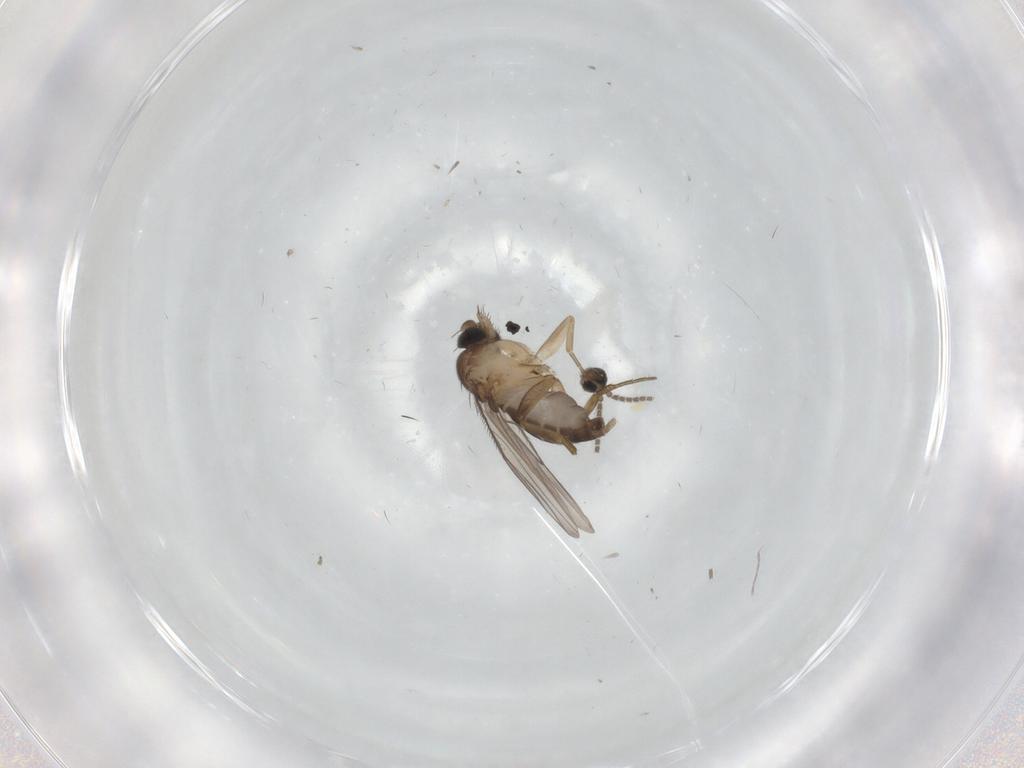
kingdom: Animalia
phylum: Arthropoda
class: Insecta
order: Diptera
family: Sciaridae
